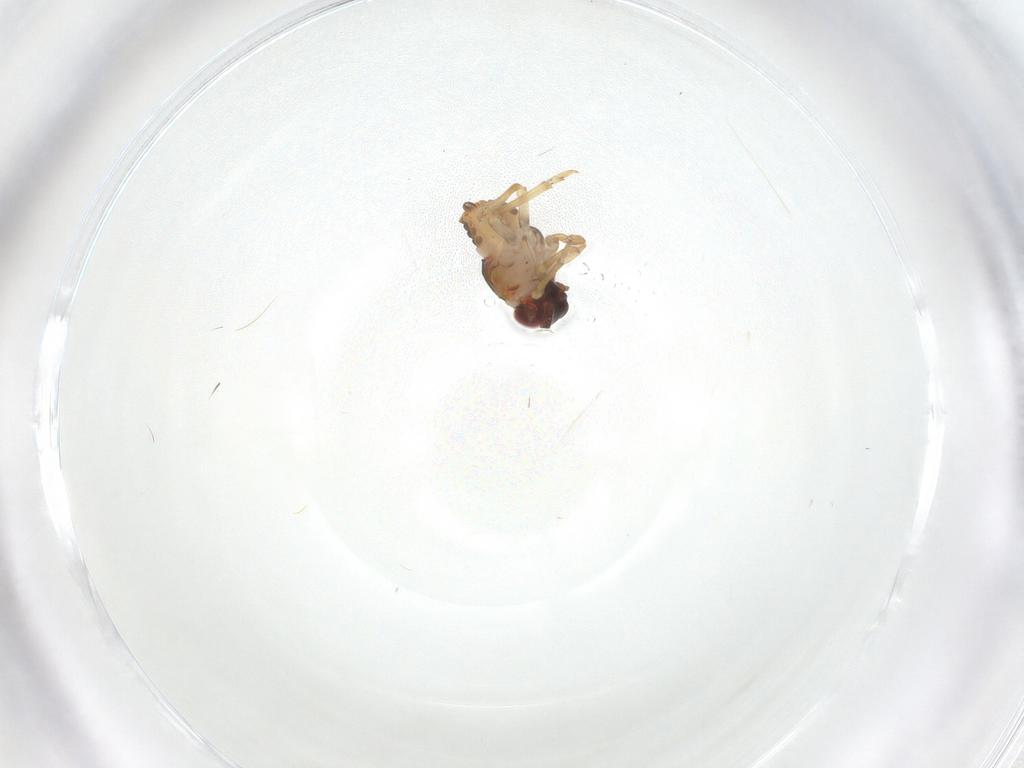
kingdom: Animalia
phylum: Arthropoda
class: Insecta
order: Hemiptera
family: Issidae
